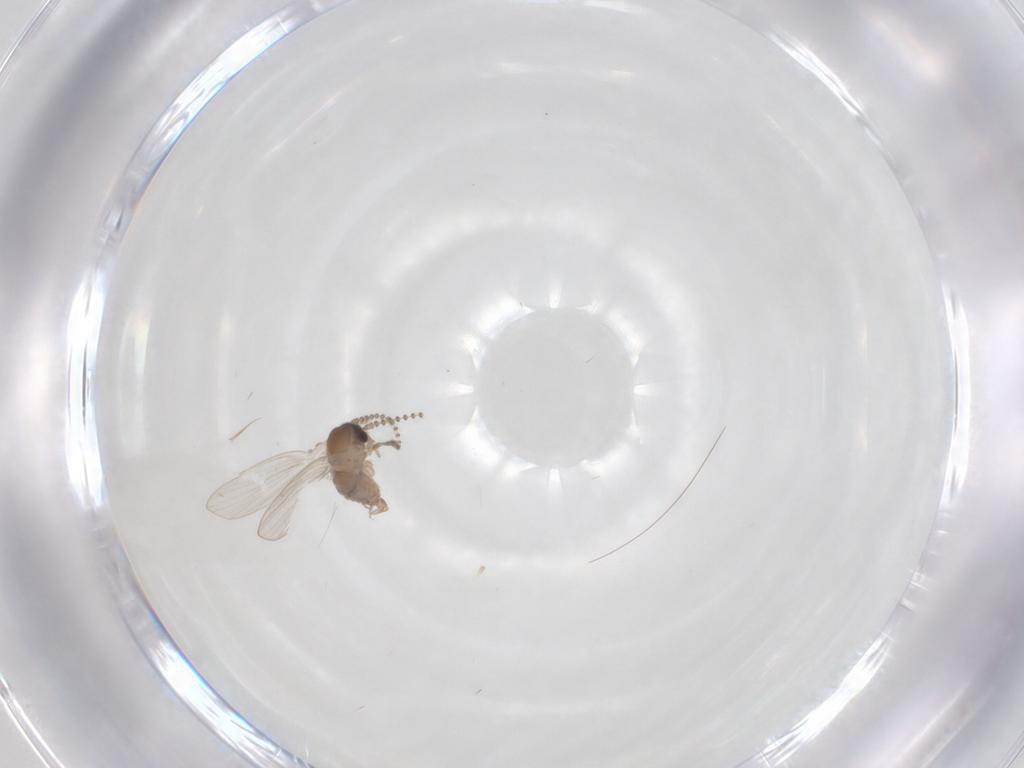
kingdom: Animalia
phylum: Arthropoda
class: Insecta
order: Diptera
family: Psychodidae
